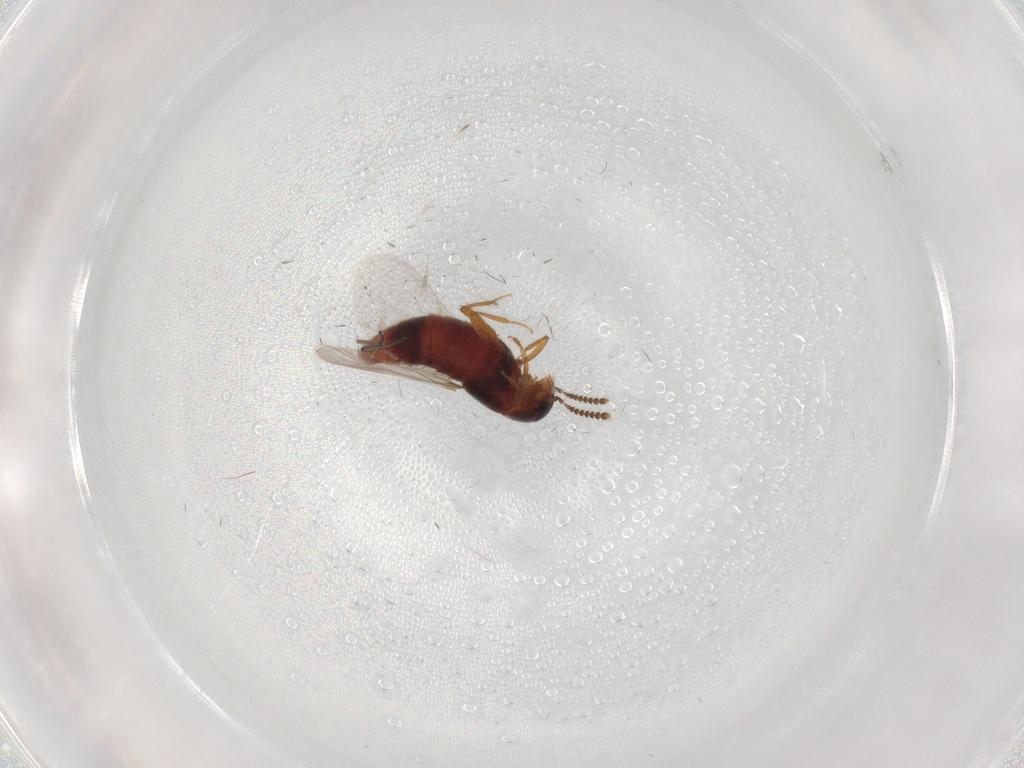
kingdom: Animalia
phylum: Arthropoda
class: Insecta
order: Coleoptera
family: Staphylinidae
